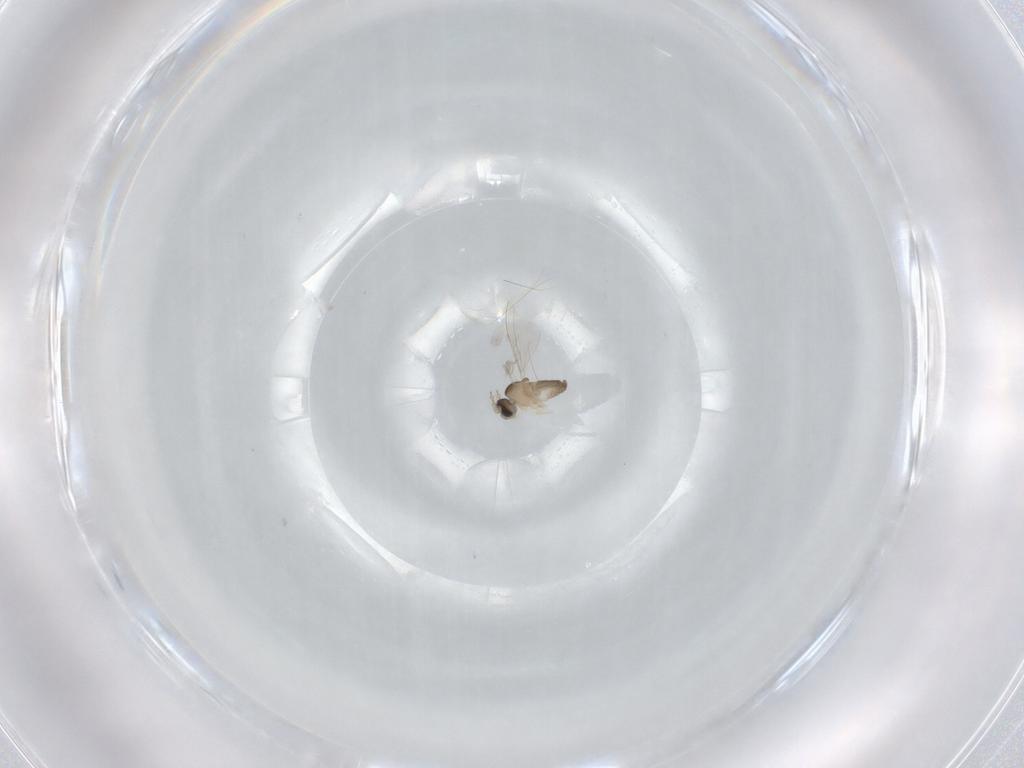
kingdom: Animalia
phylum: Arthropoda
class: Insecta
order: Diptera
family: Cecidomyiidae
